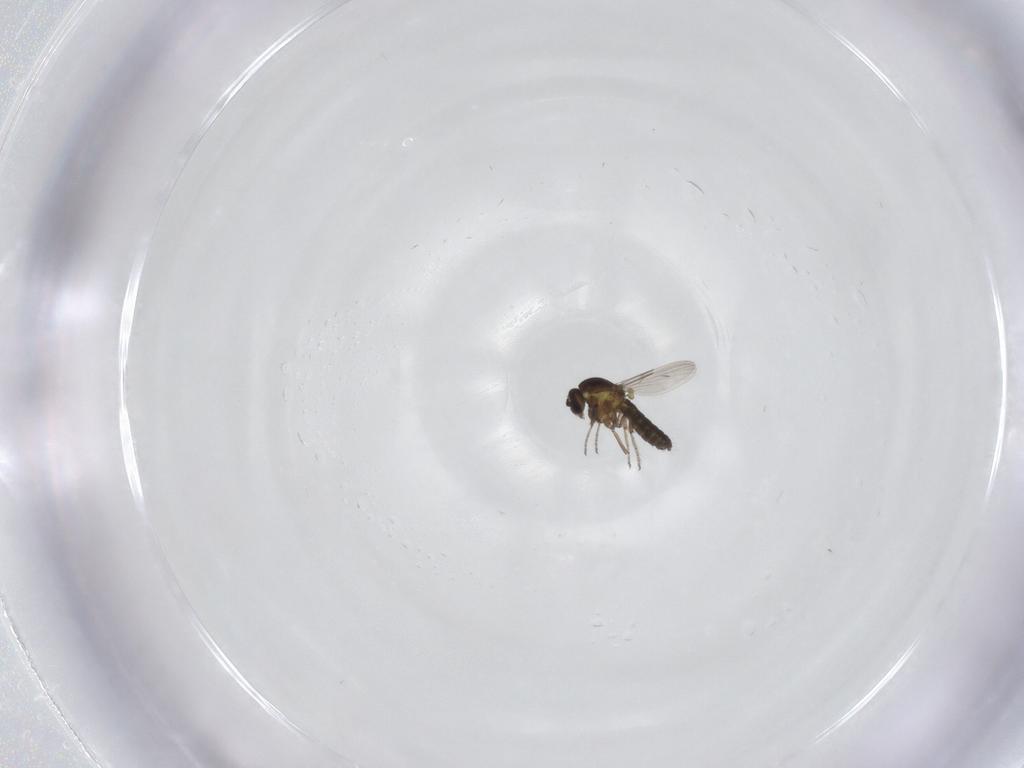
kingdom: Animalia
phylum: Arthropoda
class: Insecta
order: Diptera
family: Ceratopogonidae
